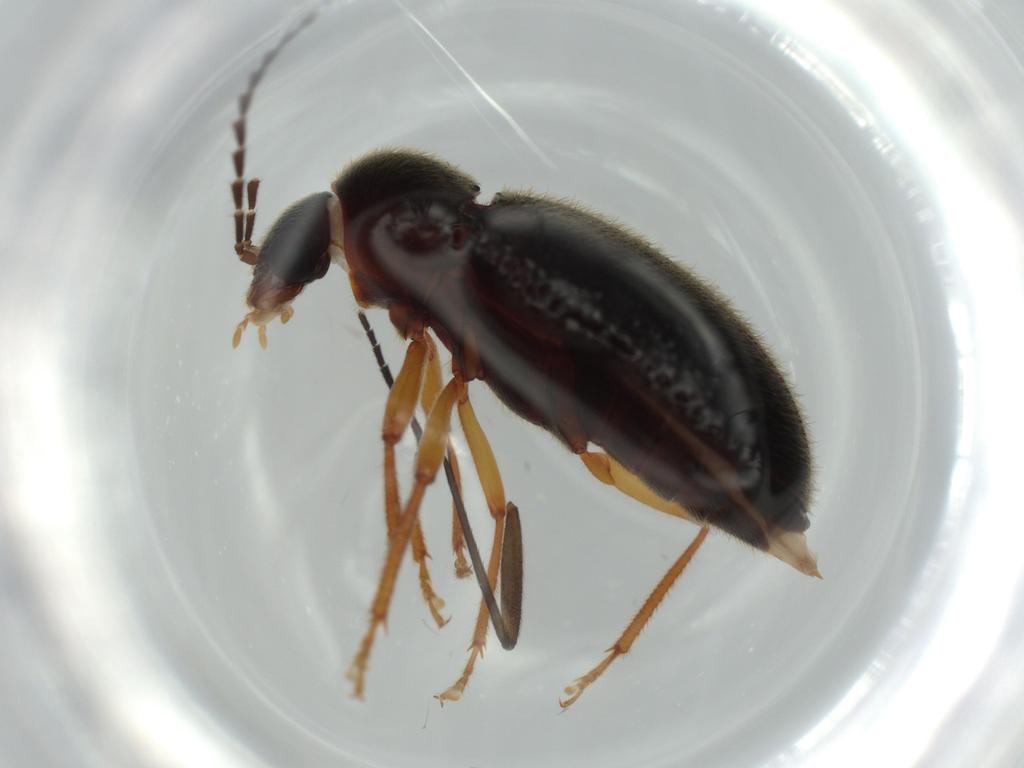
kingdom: Animalia
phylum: Arthropoda
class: Insecta
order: Coleoptera
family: Ptilodactylidae
